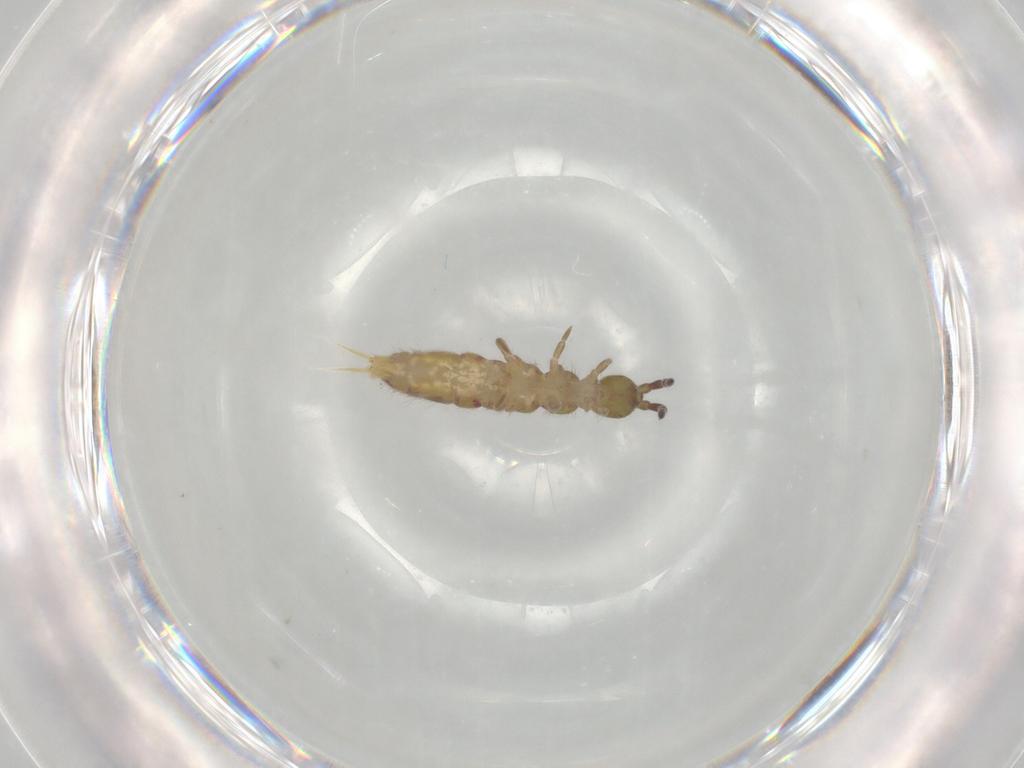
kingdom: Animalia
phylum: Arthropoda
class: Collembola
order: Entomobryomorpha
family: Isotomidae
